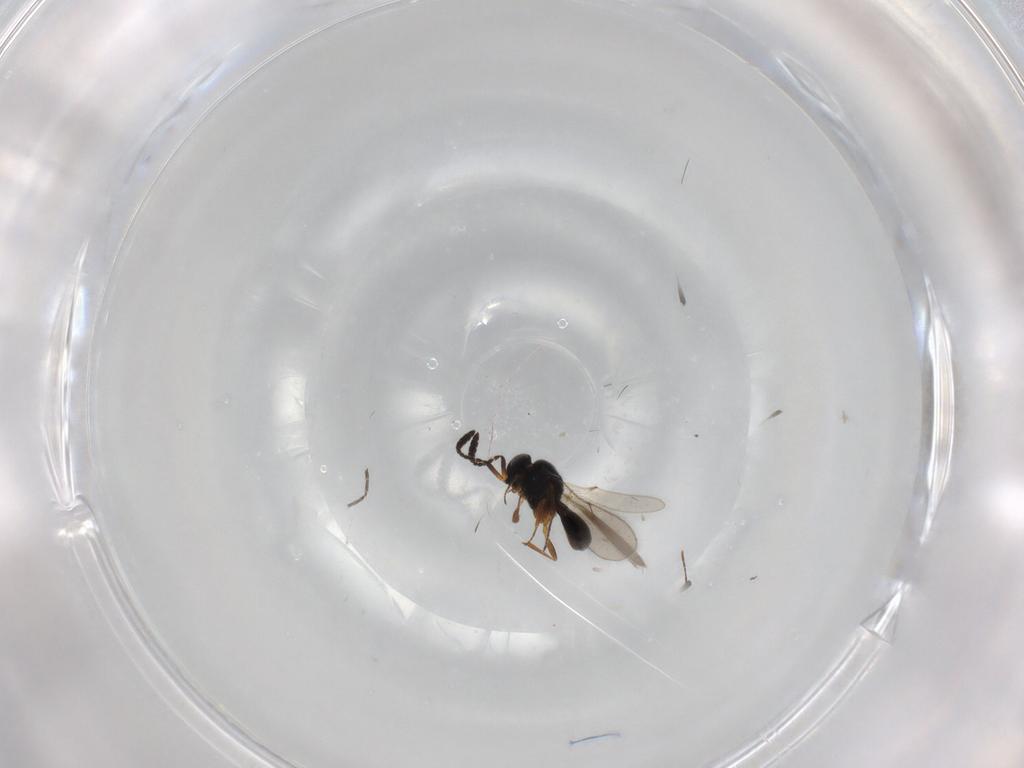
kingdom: Animalia
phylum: Arthropoda
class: Insecta
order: Hymenoptera
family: Scelionidae
